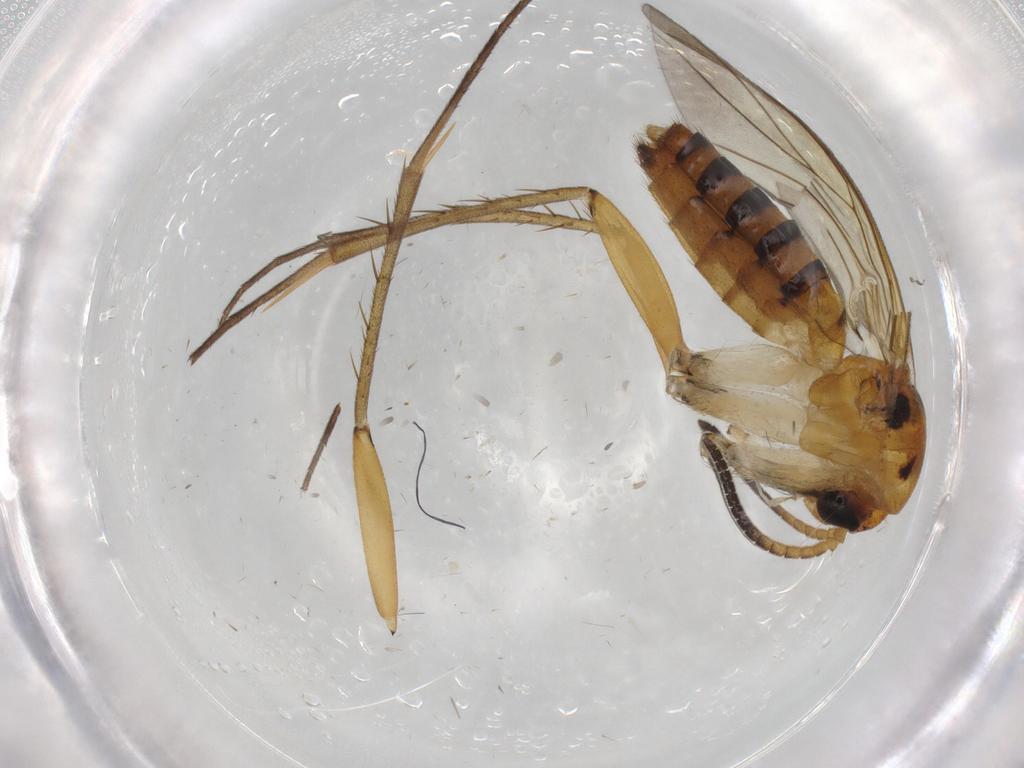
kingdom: Animalia
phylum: Arthropoda
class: Insecta
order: Diptera
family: Mycetophilidae
